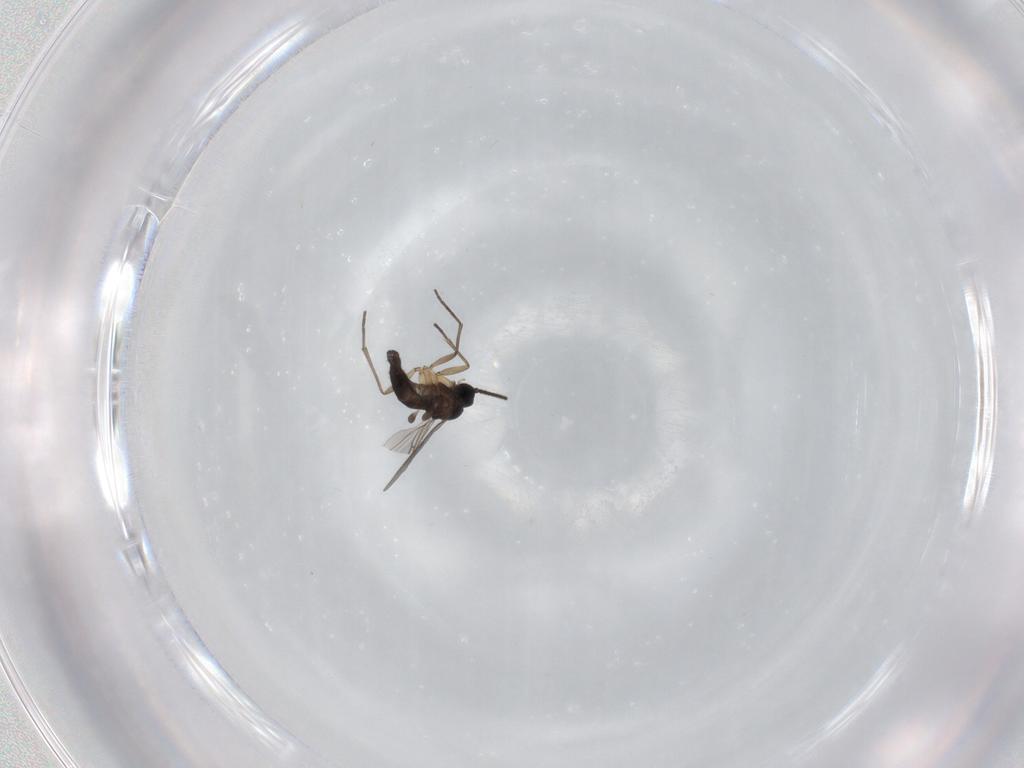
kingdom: Animalia
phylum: Arthropoda
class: Insecta
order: Diptera
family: Sciaridae
